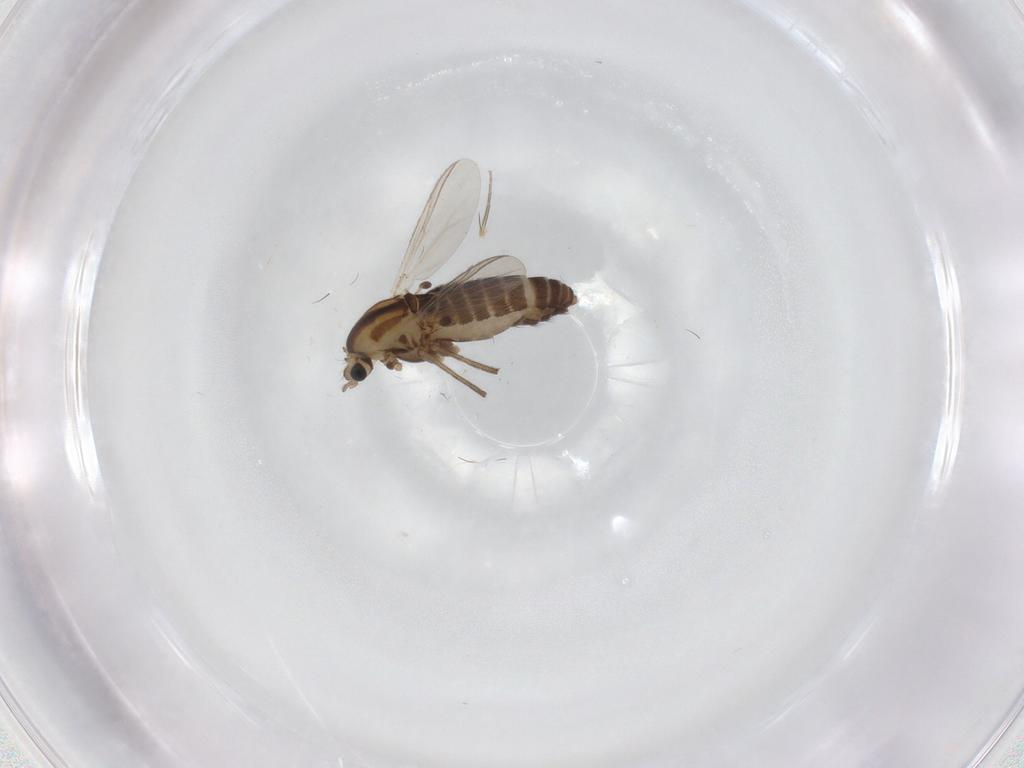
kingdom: Animalia
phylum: Arthropoda
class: Insecta
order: Diptera
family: Chironomidae
